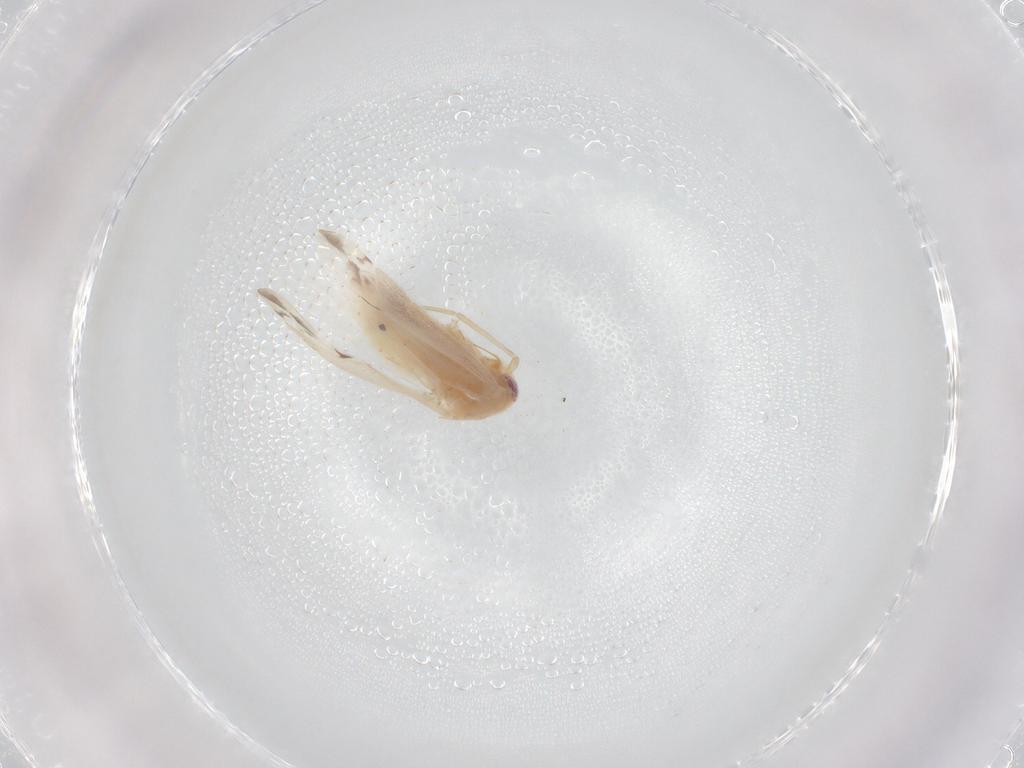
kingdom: Animalia
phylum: Arthropoda
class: Insecta
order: Hemiptera
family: Miridae
